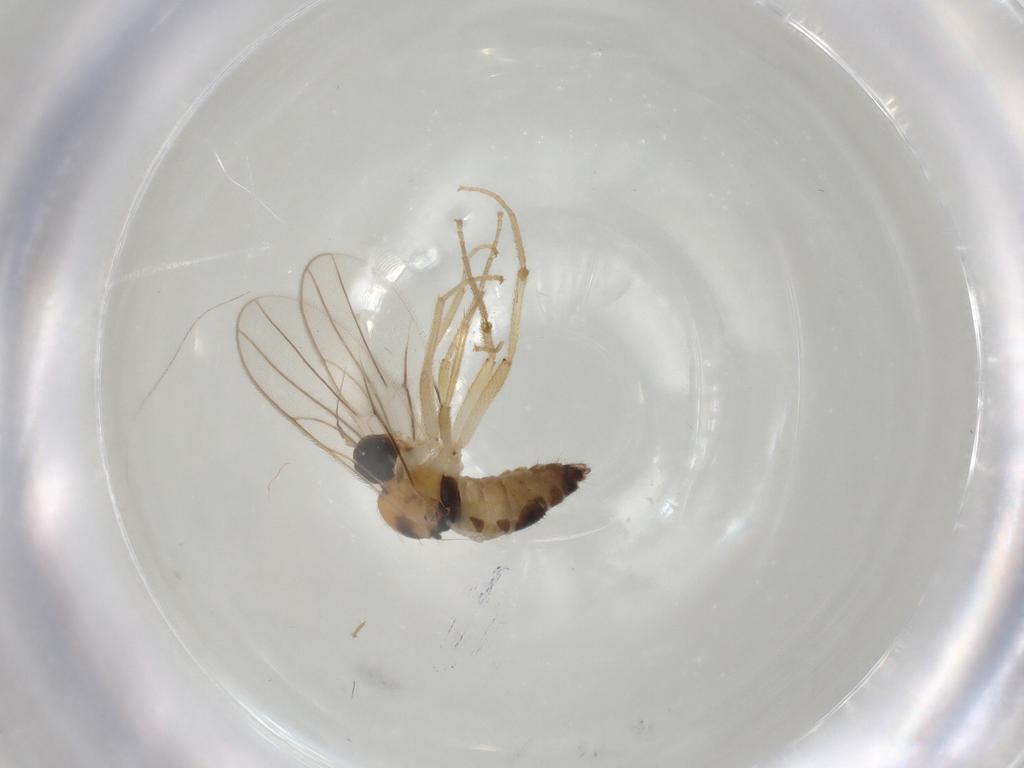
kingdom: Animalia
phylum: Arthropoda
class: Insecta
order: Diptera
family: Hybotidae
